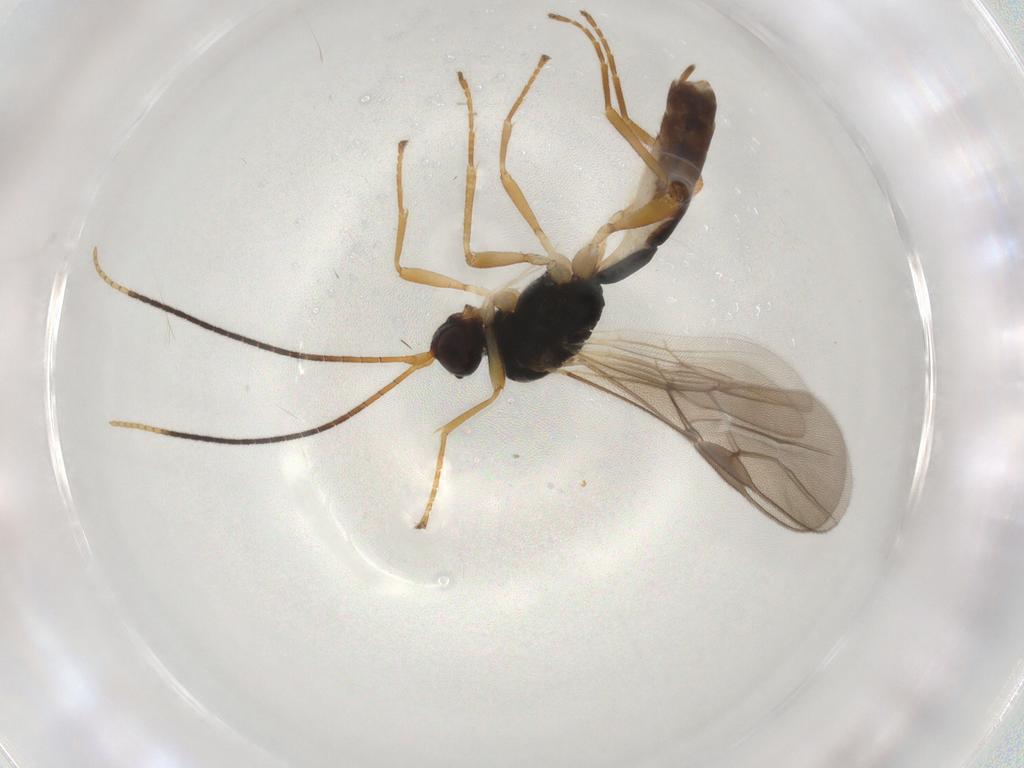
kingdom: Animalia
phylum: Arthropoda
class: Insecta
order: Hymenoptera
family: Braconidae
